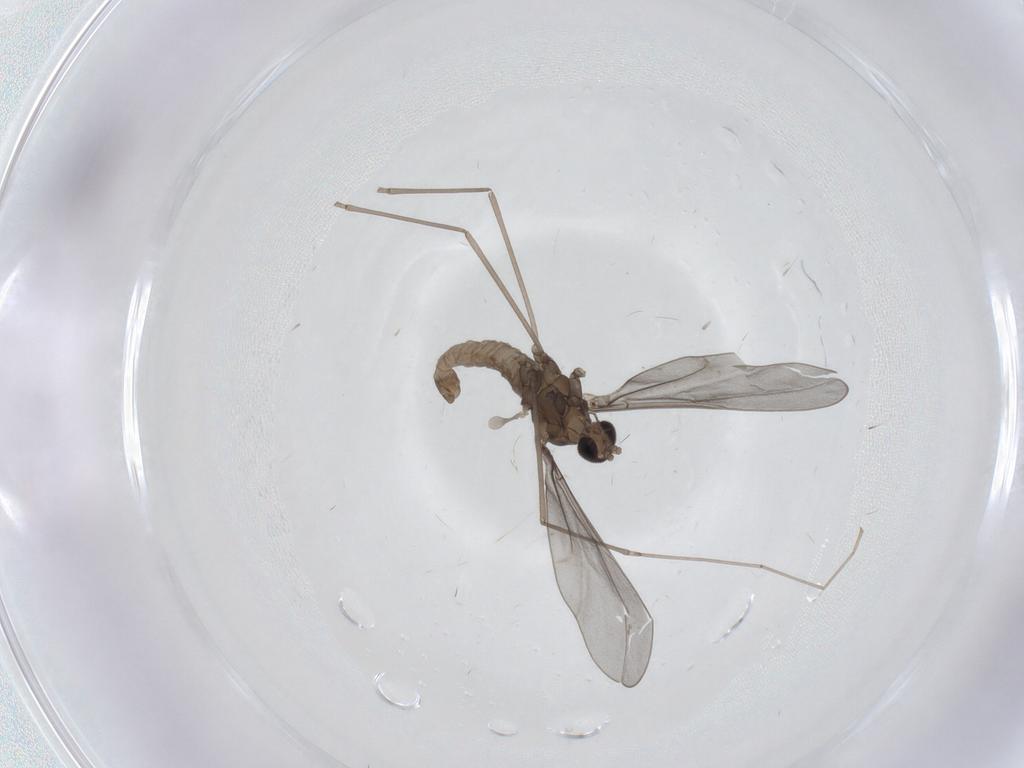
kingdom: Animalia
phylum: Arthropoda
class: Insecta
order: Diptera
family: Cecidomyiidae
